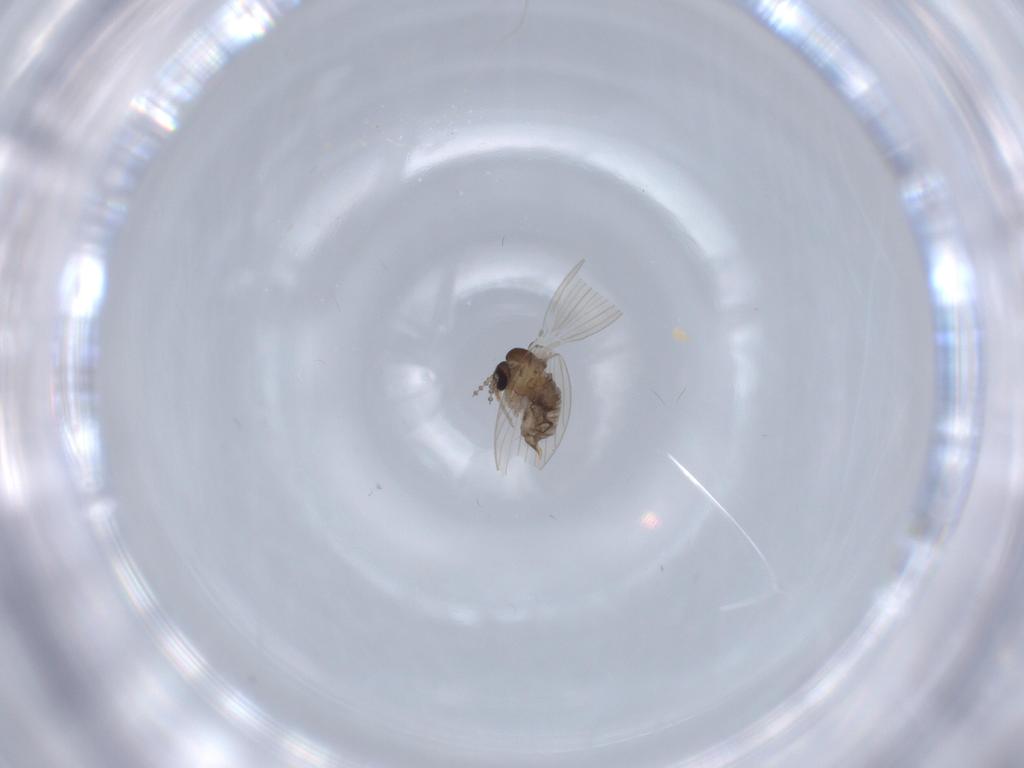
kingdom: Animalia
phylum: Arthropoda
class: Insecta
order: Diptera
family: Psychodidae
